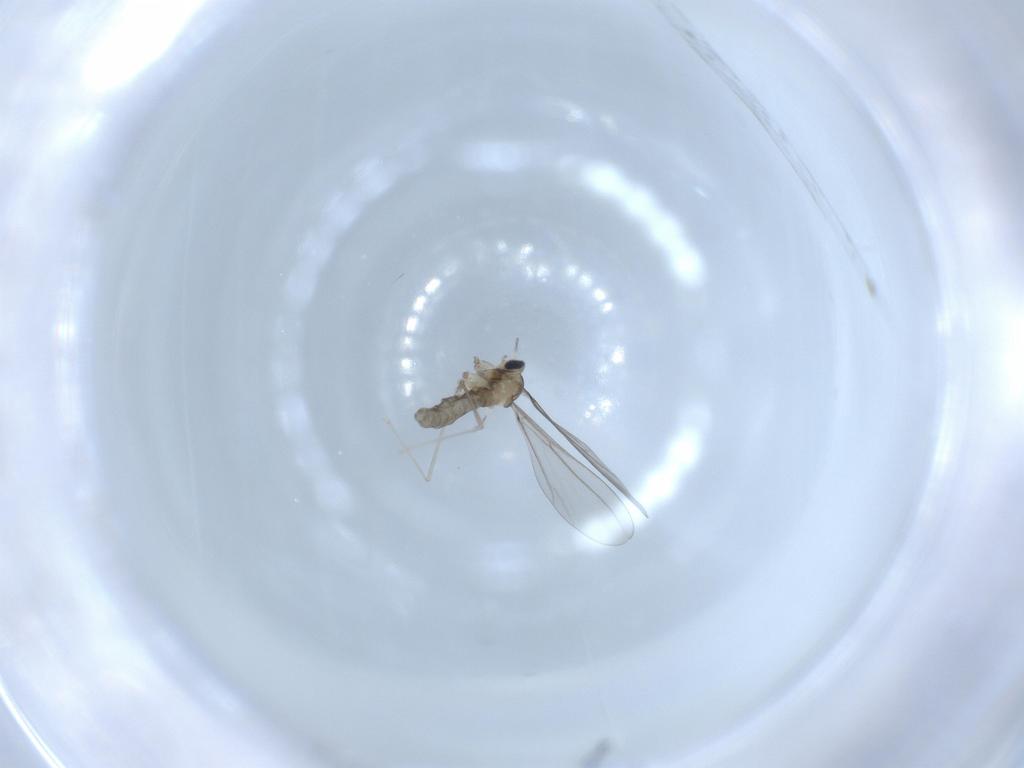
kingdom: Animalia
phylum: Arthropoda
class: Insecta
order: Diptera
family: Cecidomyiidae
